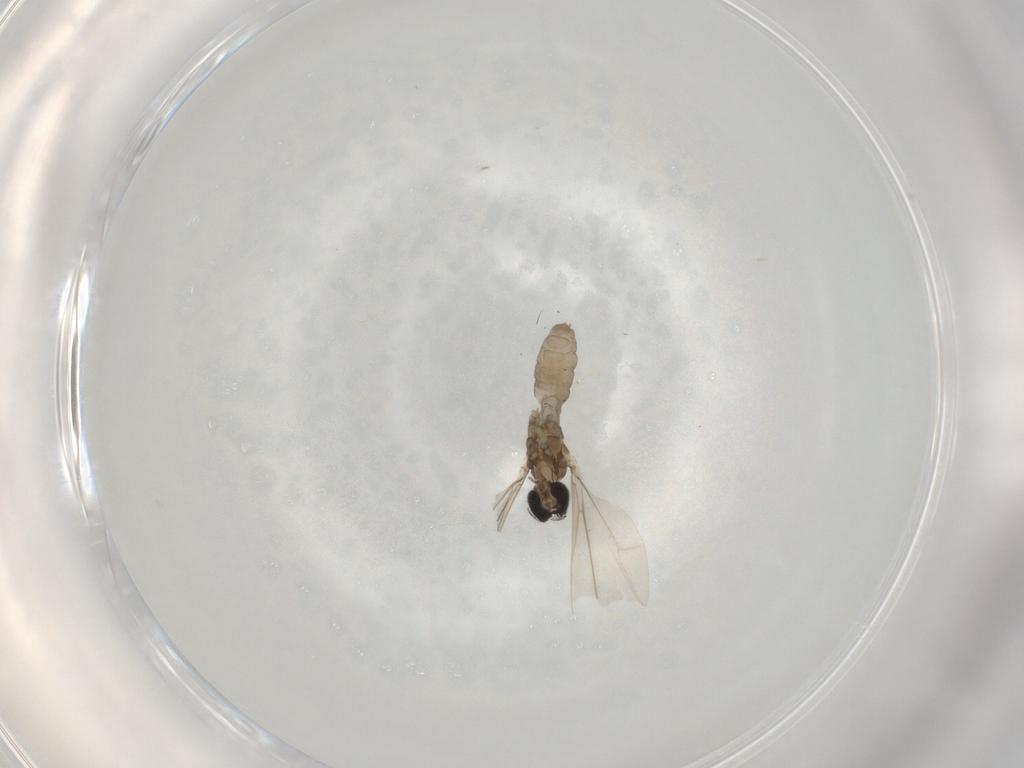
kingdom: Animalia
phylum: Arthropoda
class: Insecta
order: Diptera
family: Cecidomyiidae
